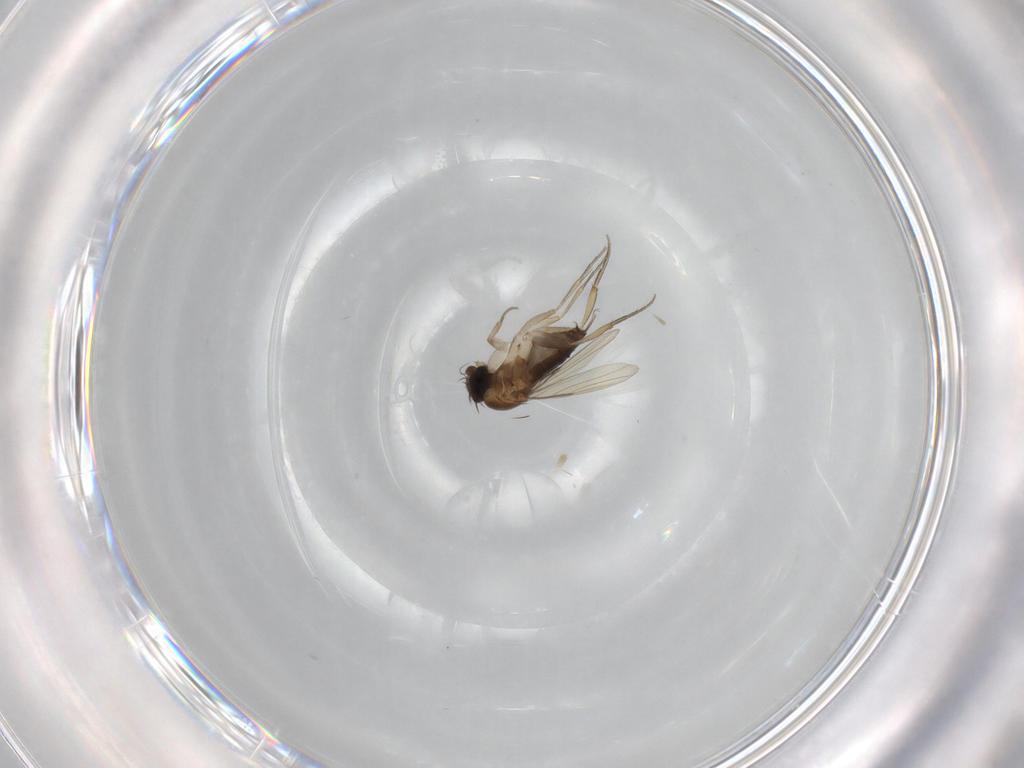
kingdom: Animalia
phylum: Arthropoda
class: Insecta
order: Diptera
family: Phoridae
